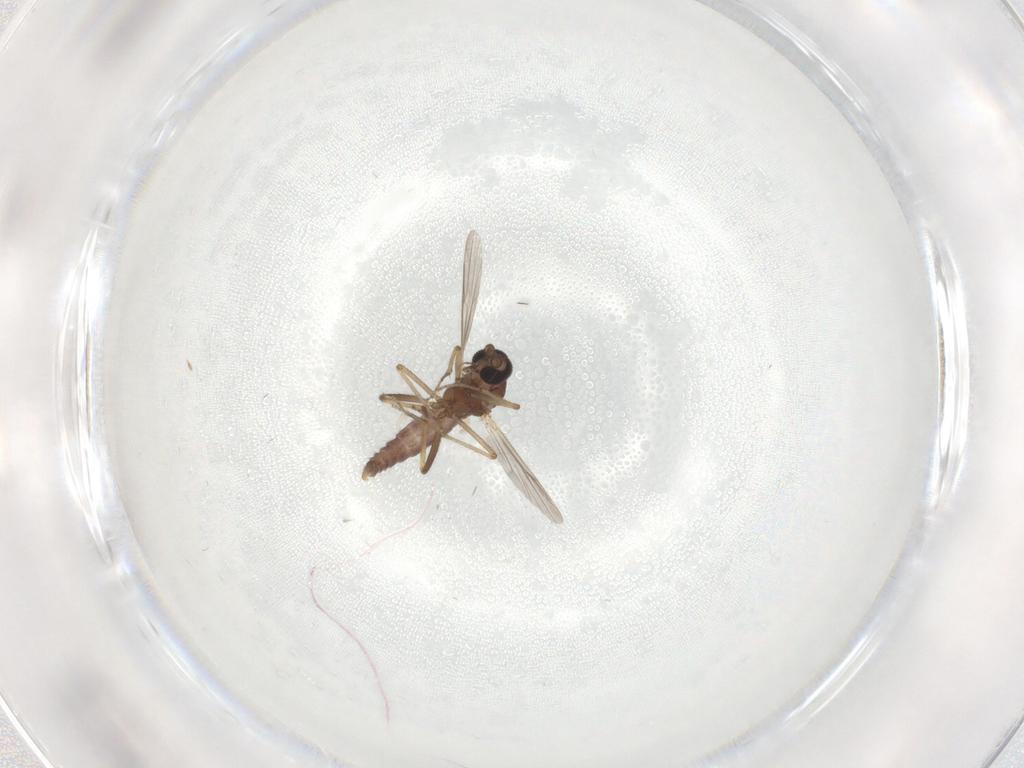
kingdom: Animalia
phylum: Arthropoda
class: Insecta
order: Diptera
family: Ceratopogonidae
